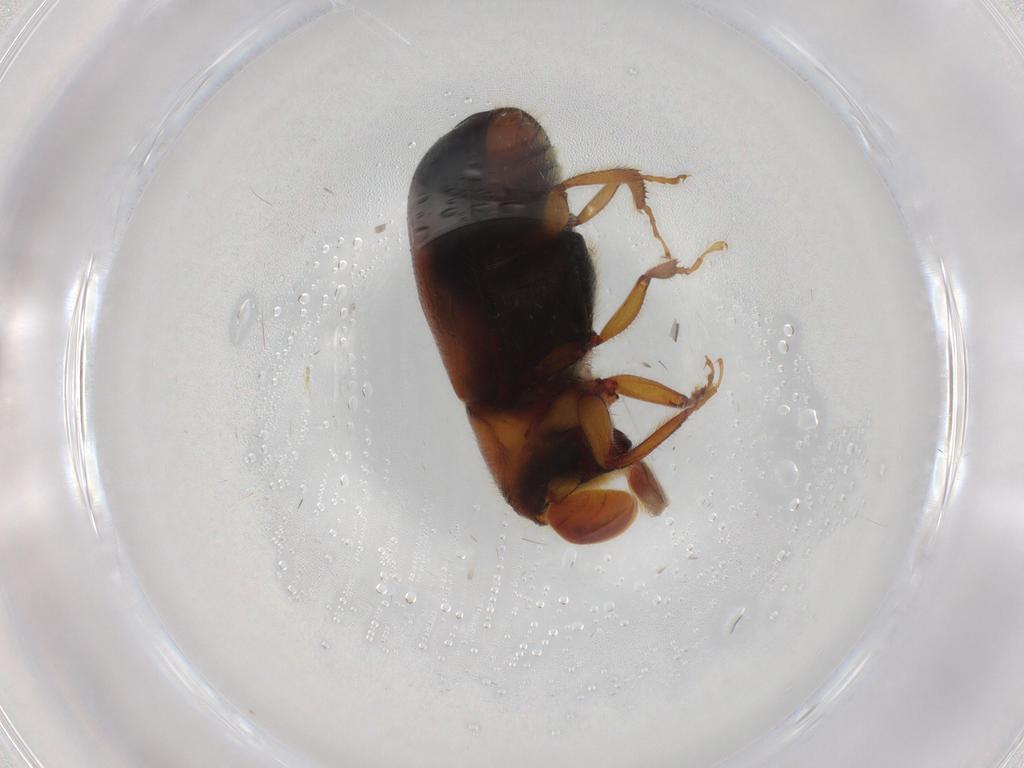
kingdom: Animalia
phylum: Arthropoda
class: Insecta
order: Coleoptera
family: Curculionidae
